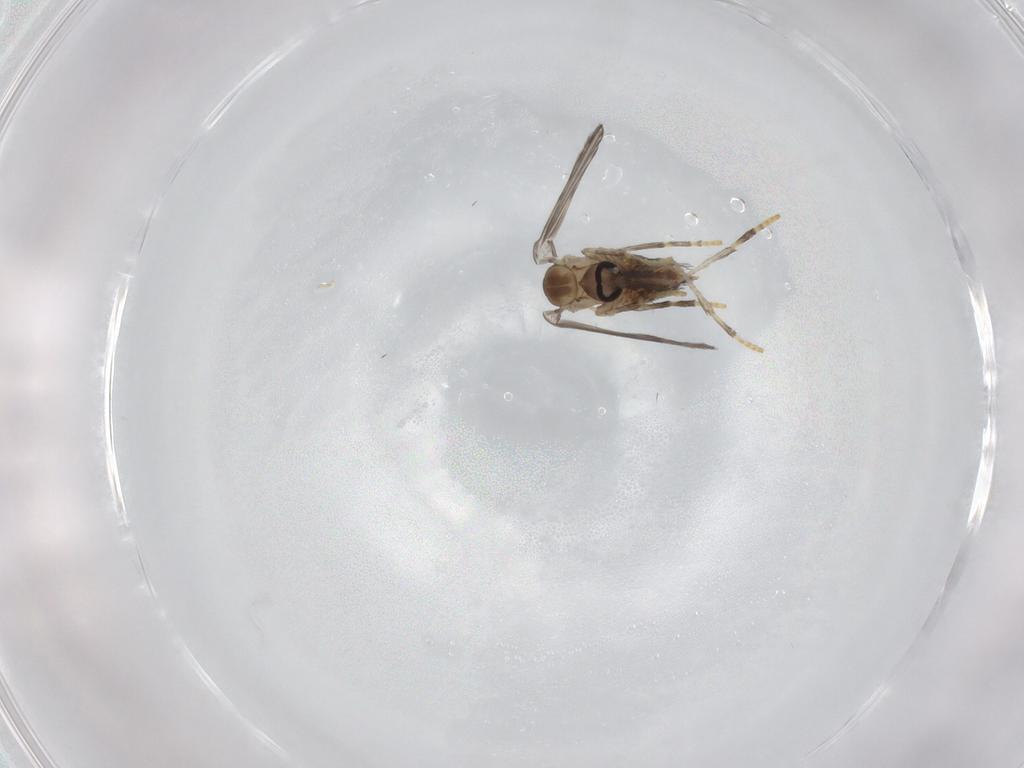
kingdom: Animalia
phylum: Arthropoda
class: Insecta
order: Diptera
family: Psychodidae
